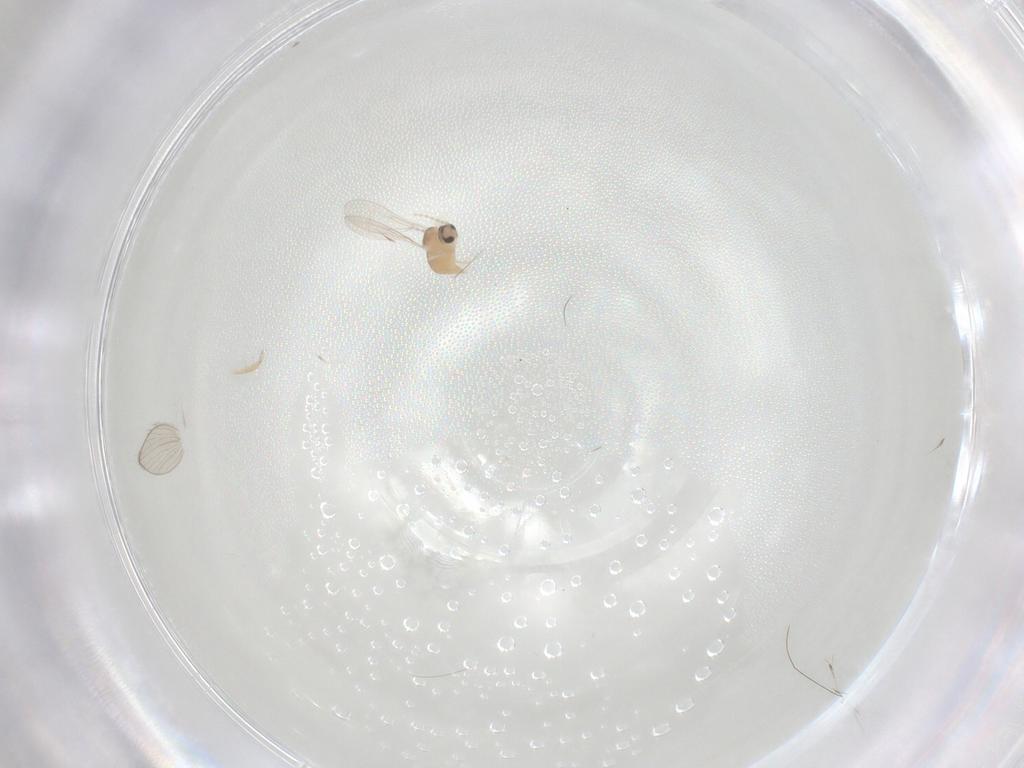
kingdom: Animalia
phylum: Arthropoda
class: Insecta
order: Diptera
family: Cecidomyiidae
